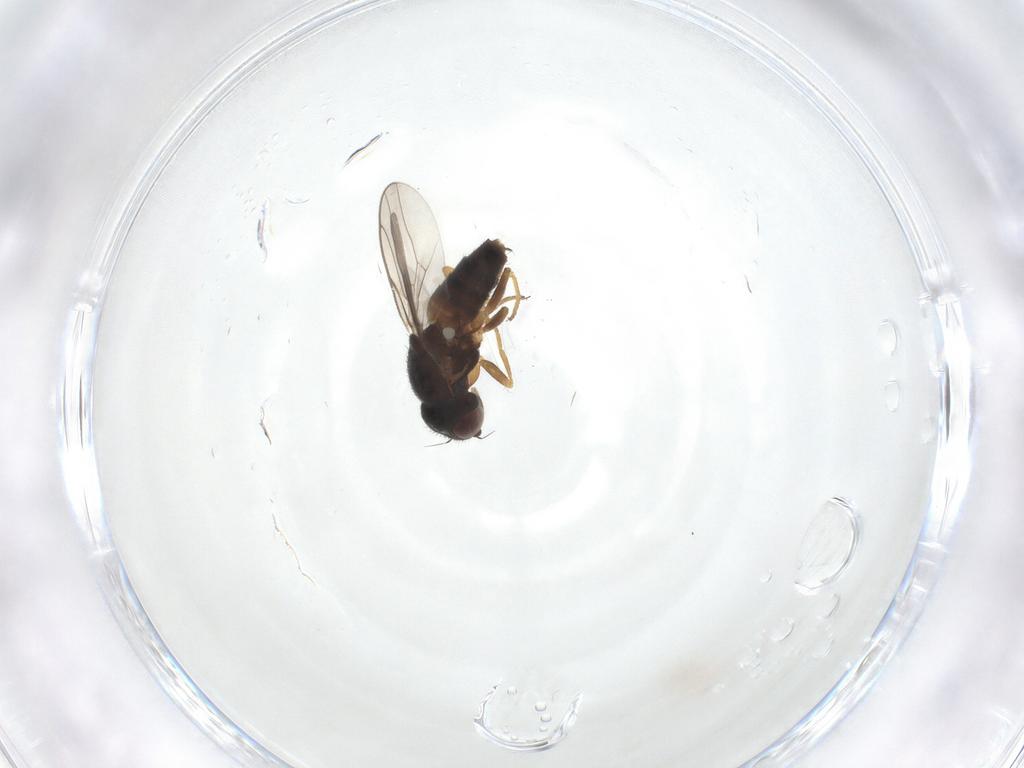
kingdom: Animalia
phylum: Arthropoda
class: Insecta
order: Diptera
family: Chloropidae
